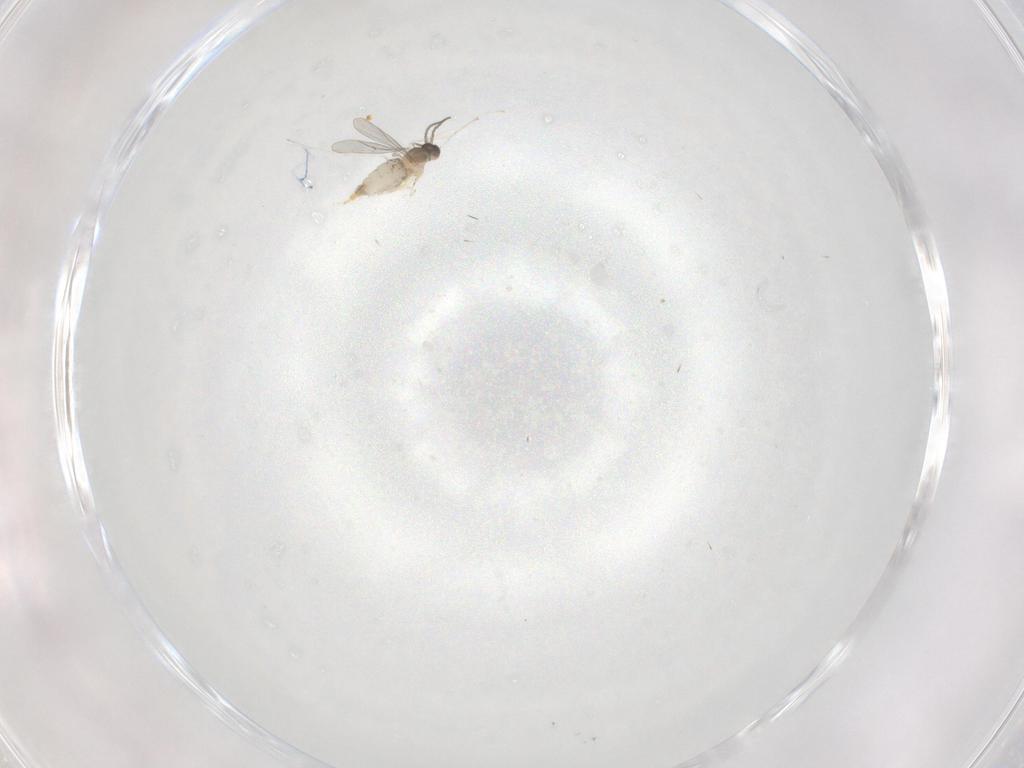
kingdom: Animalia
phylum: Arthropoda
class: Insecta
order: Diptera
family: Cecidomyiidae
